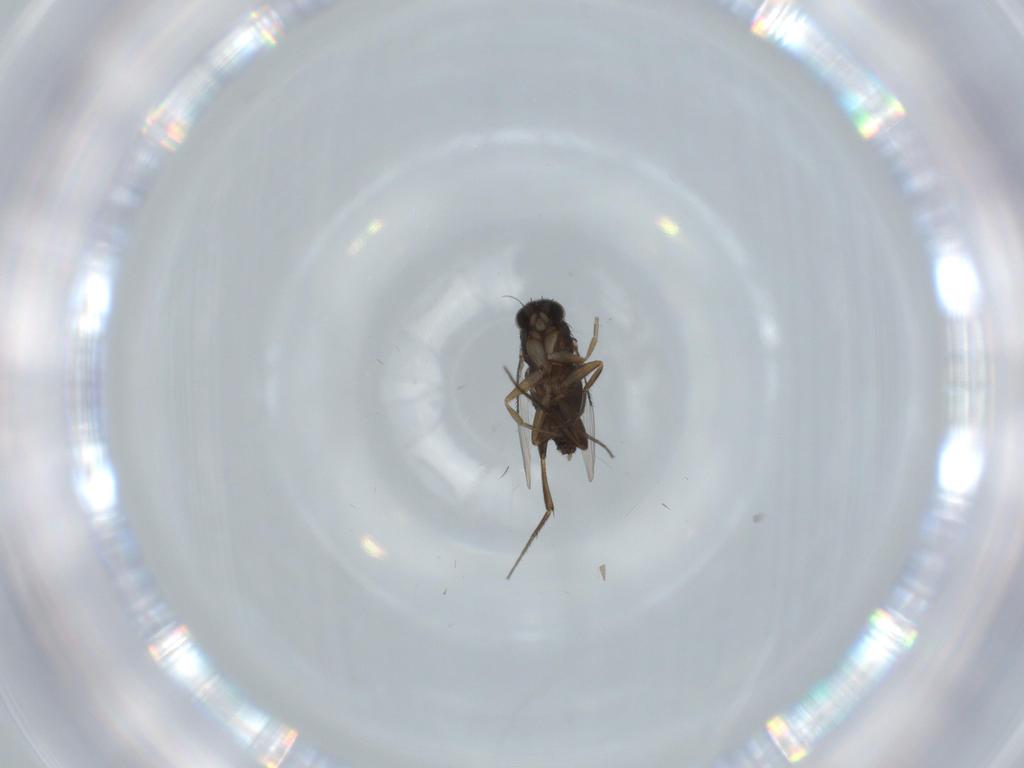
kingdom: Animalia
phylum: Arthropoda
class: Insecta
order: Diptera
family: Phoridae
